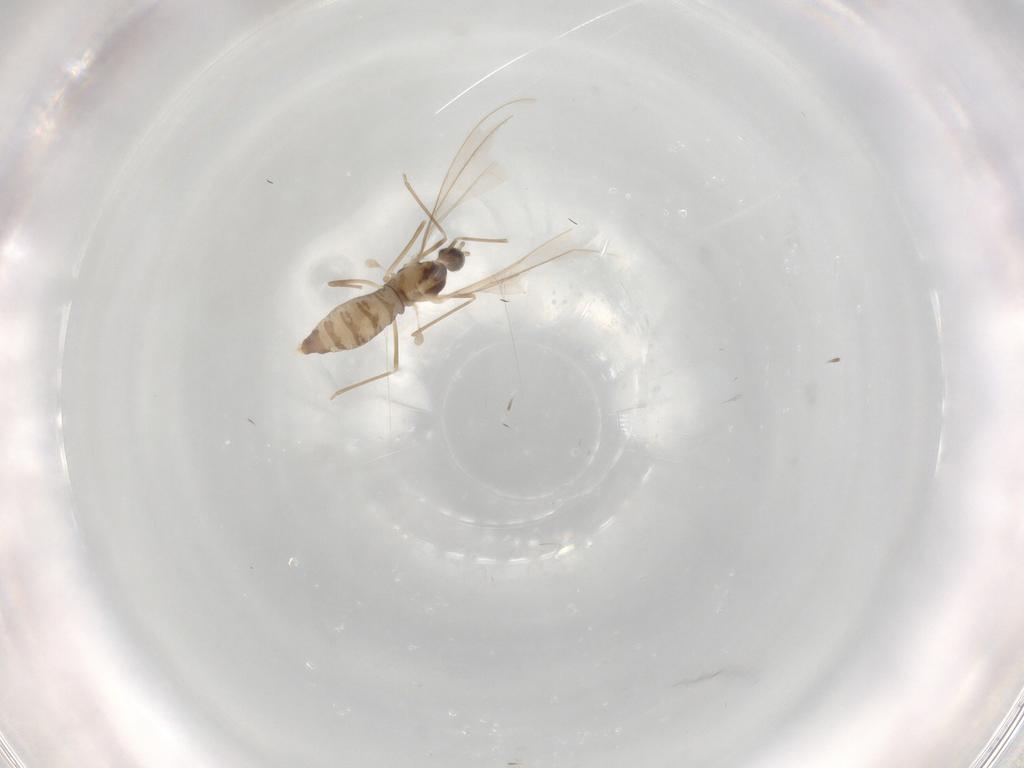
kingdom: Animalia
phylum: Arthropoda
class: Insecta
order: Diptera
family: Cecidomyiidae
